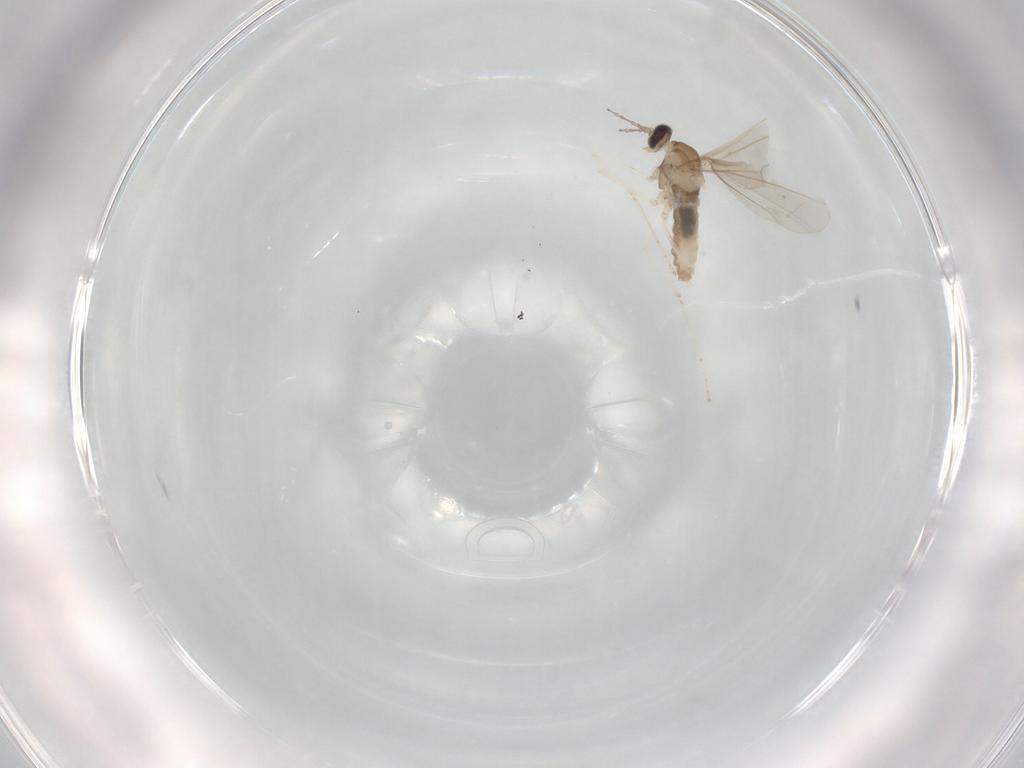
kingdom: Animalia
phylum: Arthropoda
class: Insecta
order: Diptera
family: Cecidomyiidae
